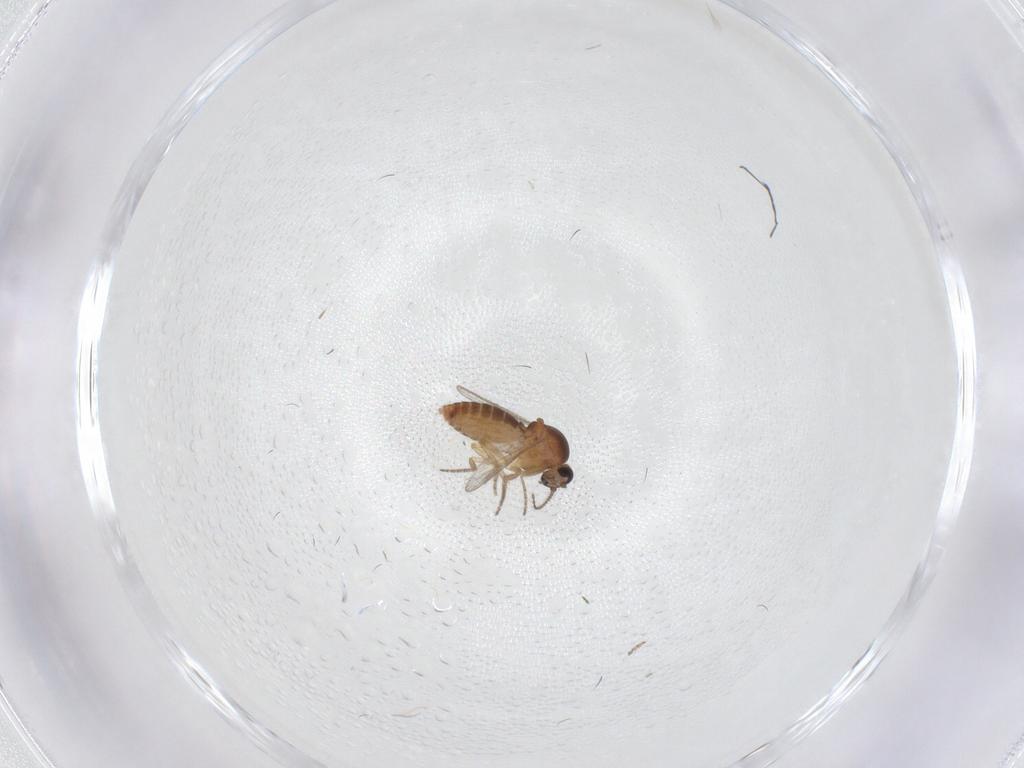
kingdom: Animalia
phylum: Arthropoda
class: Insecta
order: Diptera
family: Ceratopogonidae
